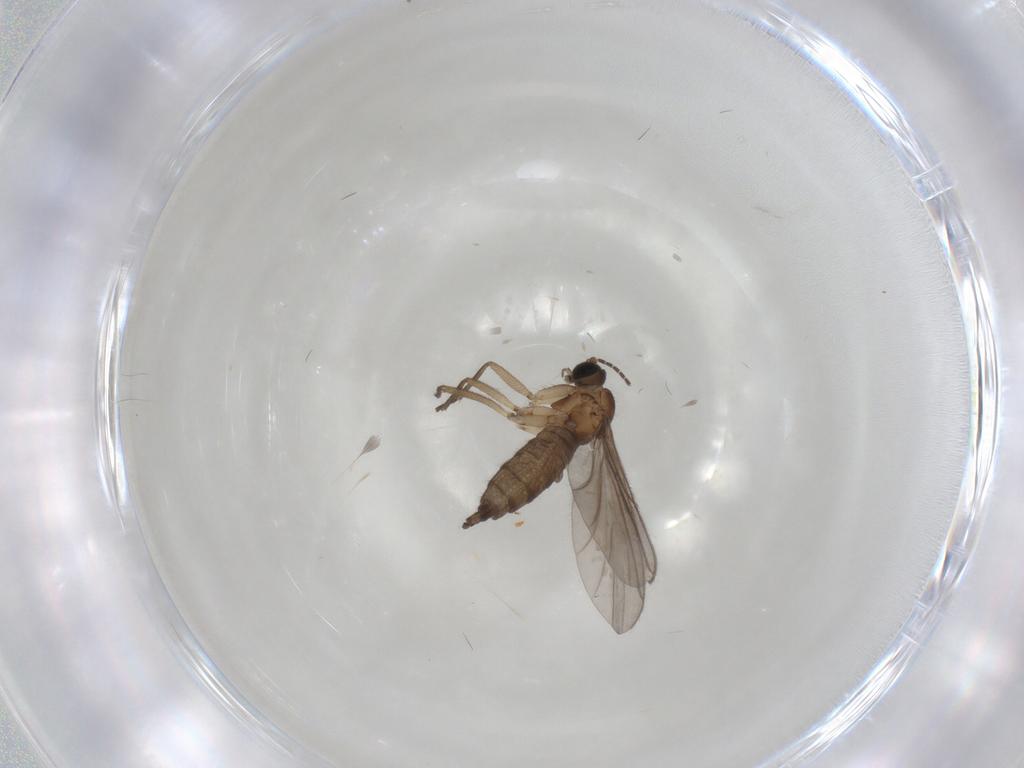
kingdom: Animalia
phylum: Arthropoda
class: Insecta
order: Diptera
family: Sciaridae
